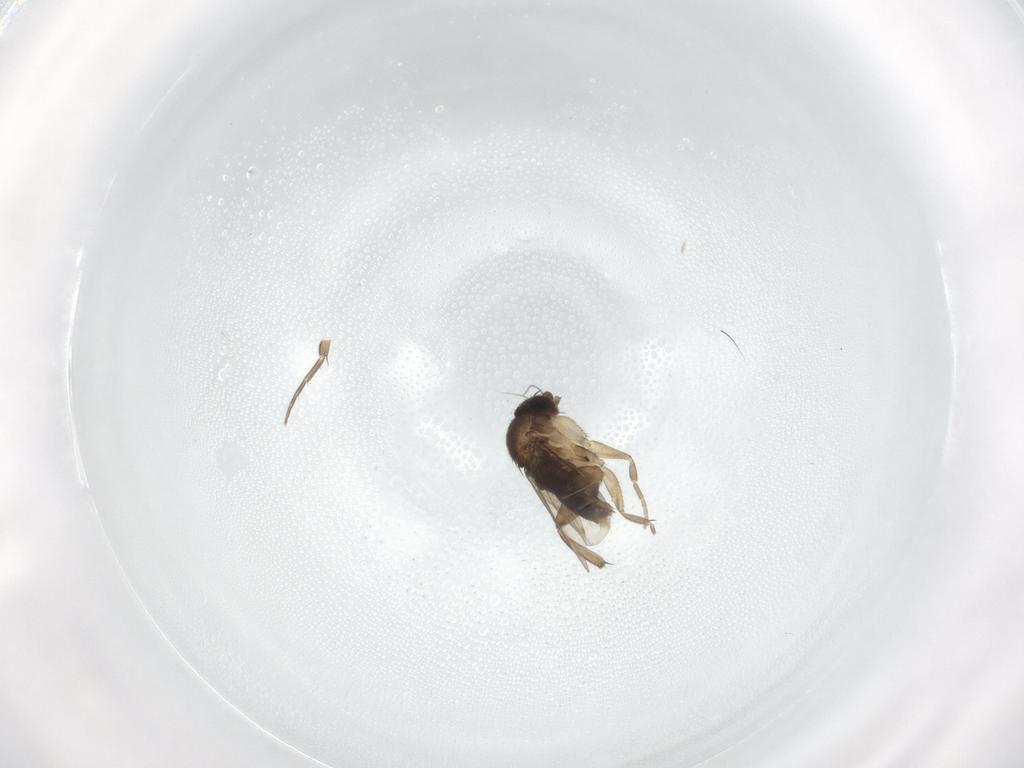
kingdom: Animalia
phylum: Arthropoda
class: Insecta
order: Diptera
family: Phoridae
